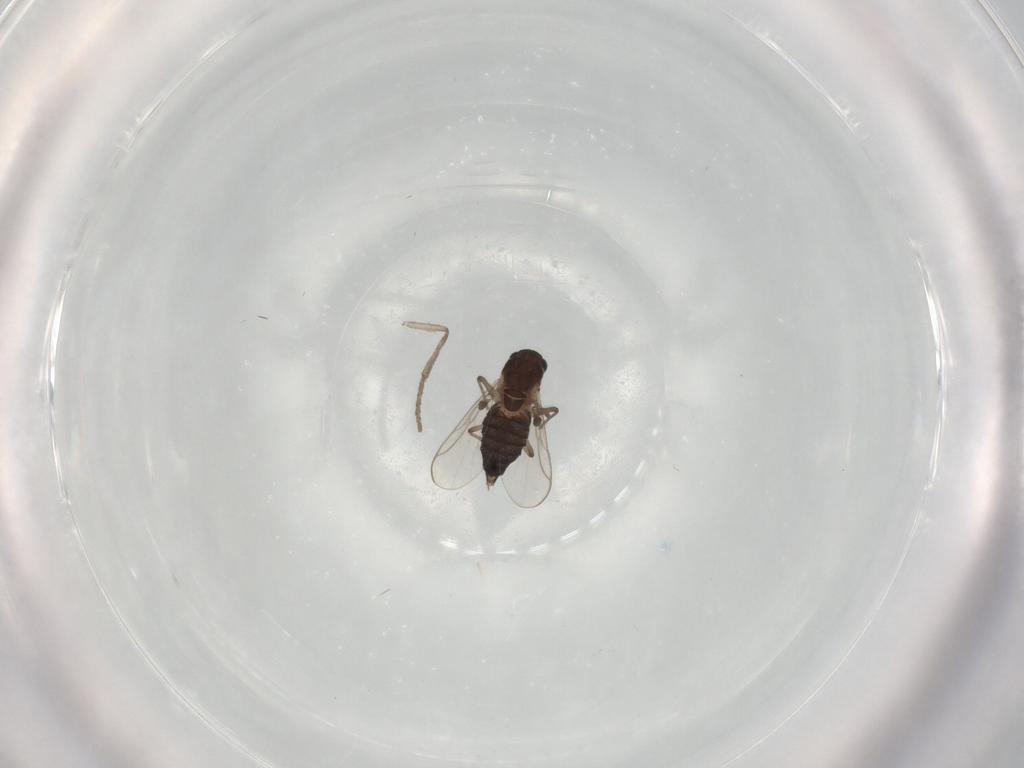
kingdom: Animalia
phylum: Arthropoda
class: Insecta
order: Diptera
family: Chironomidae
